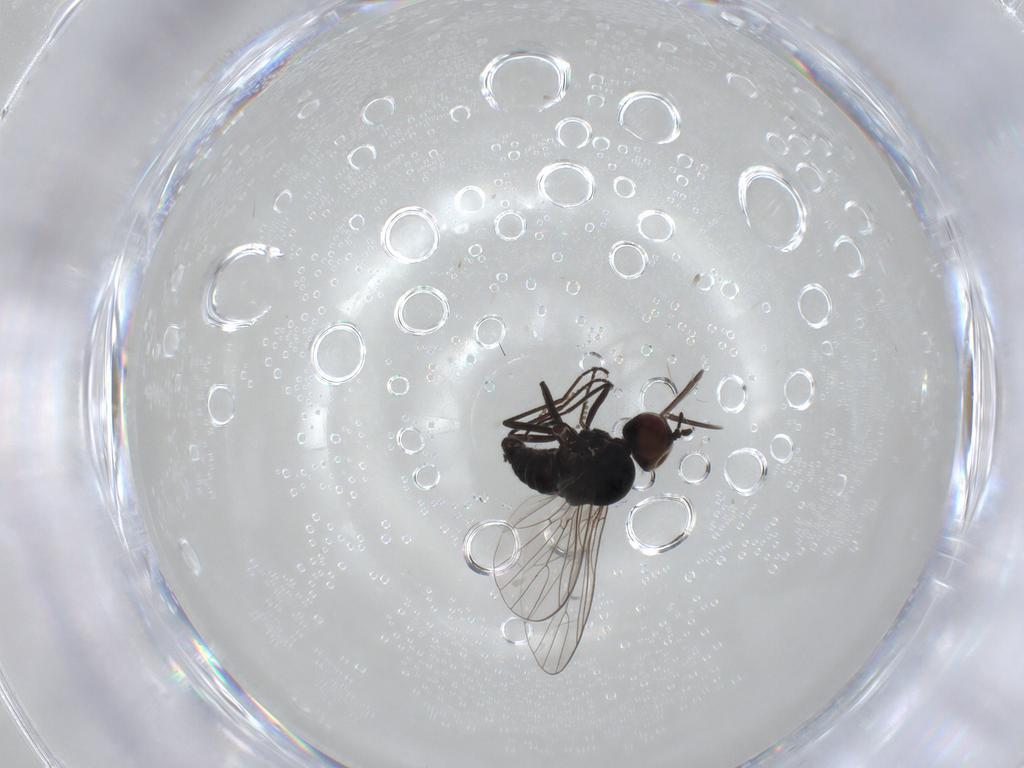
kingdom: Animalia
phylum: Arthropoda
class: Insecta
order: Diptera
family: Bombyliidae
